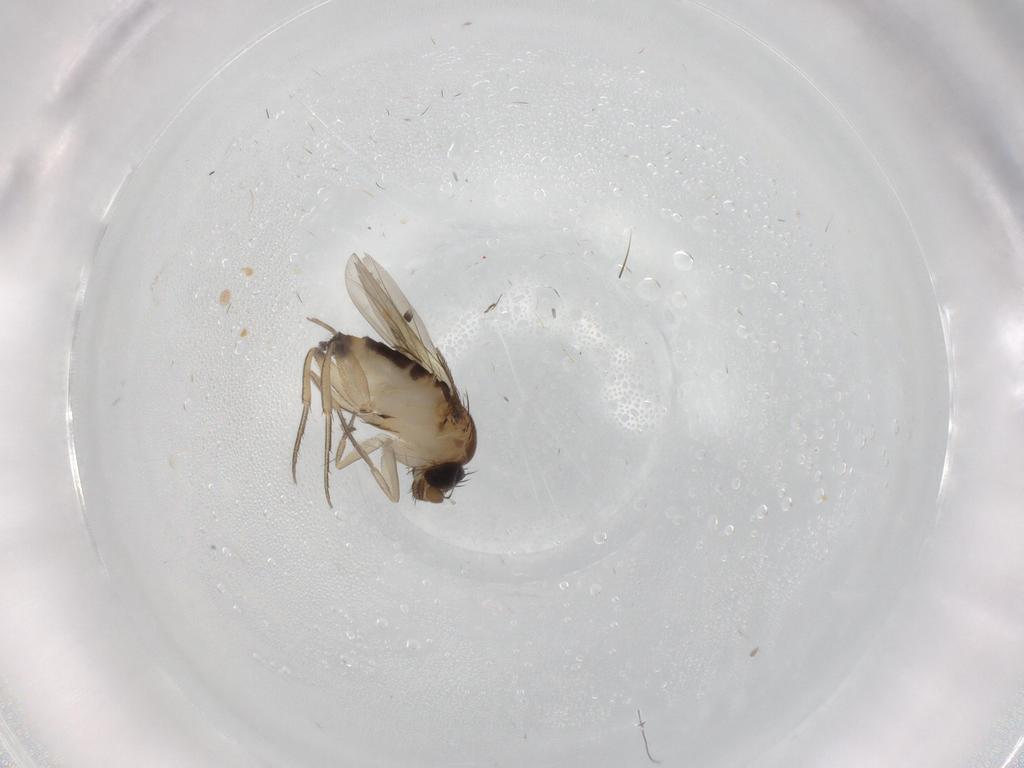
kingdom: Animalia
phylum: Arthropoda
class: Insecta
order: Diptera
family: Cecidomyiidae
